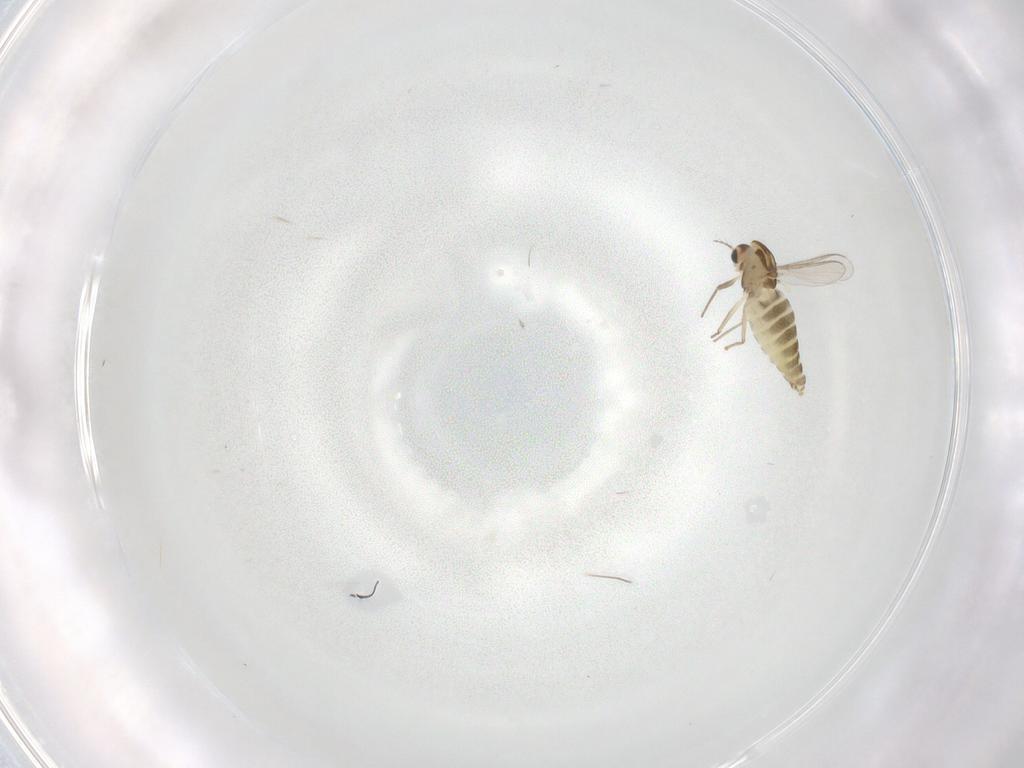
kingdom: Animalia
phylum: Arthropoda
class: Insecta
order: Diptera
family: Phoridae
